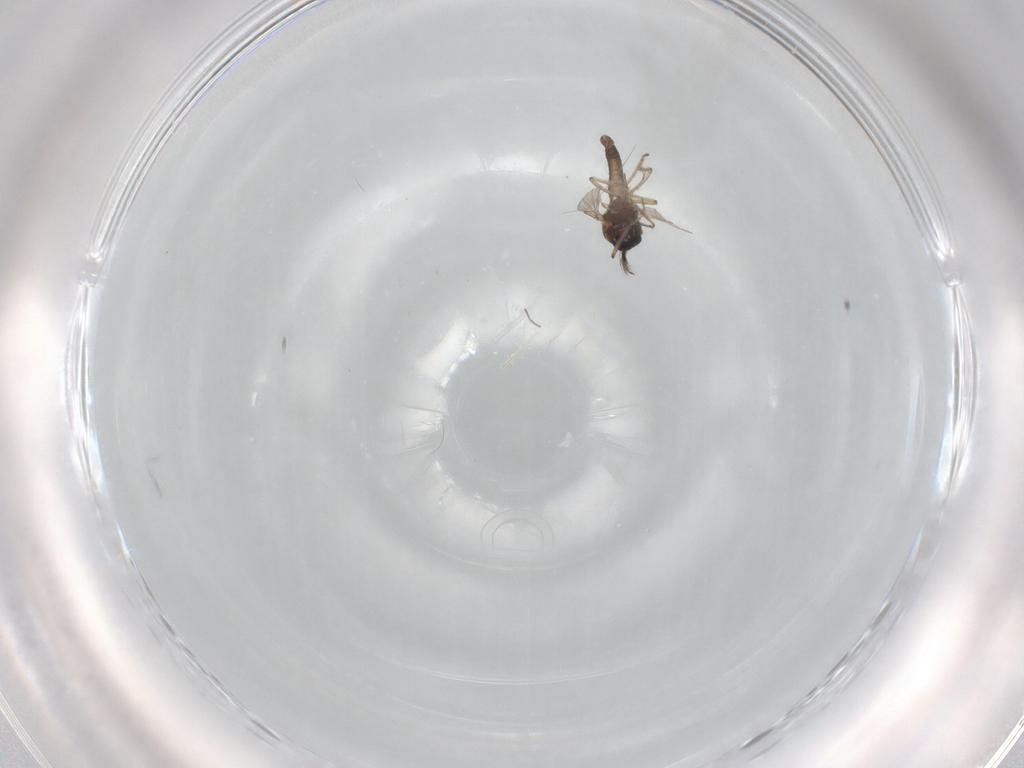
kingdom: Animalia
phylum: Arthropoda
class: Insecta
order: Diptera
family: Ceratopogonidae
